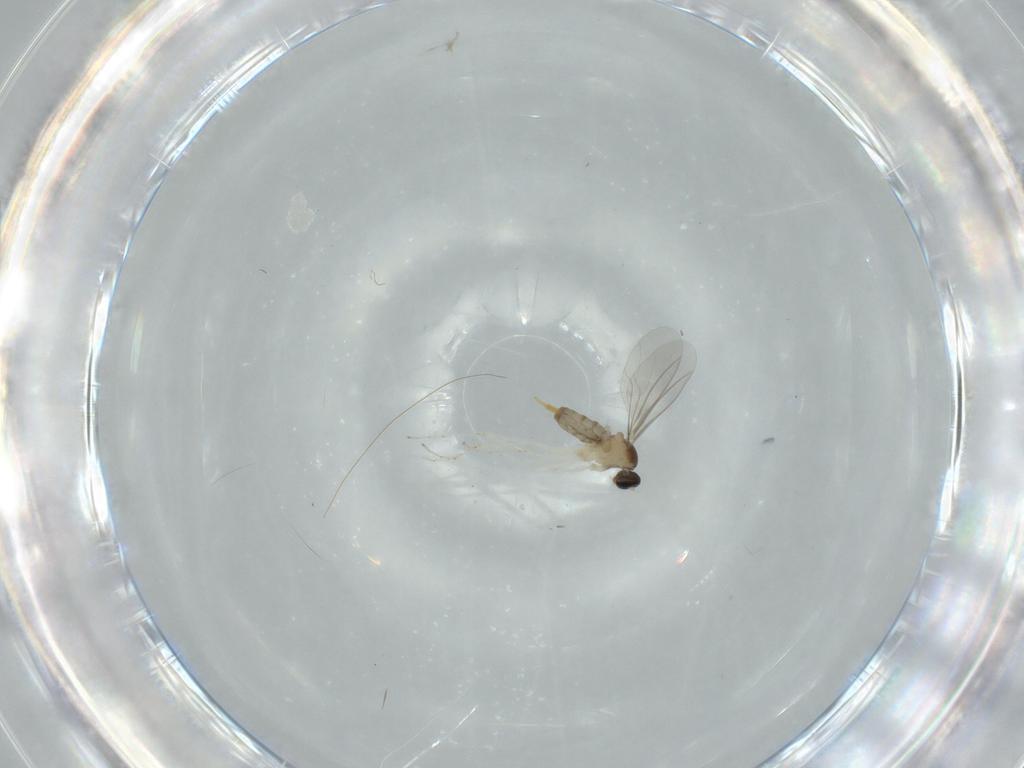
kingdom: Animalia
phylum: Arthropoda
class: Insecta
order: Diptera
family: Cecidomyiidae
